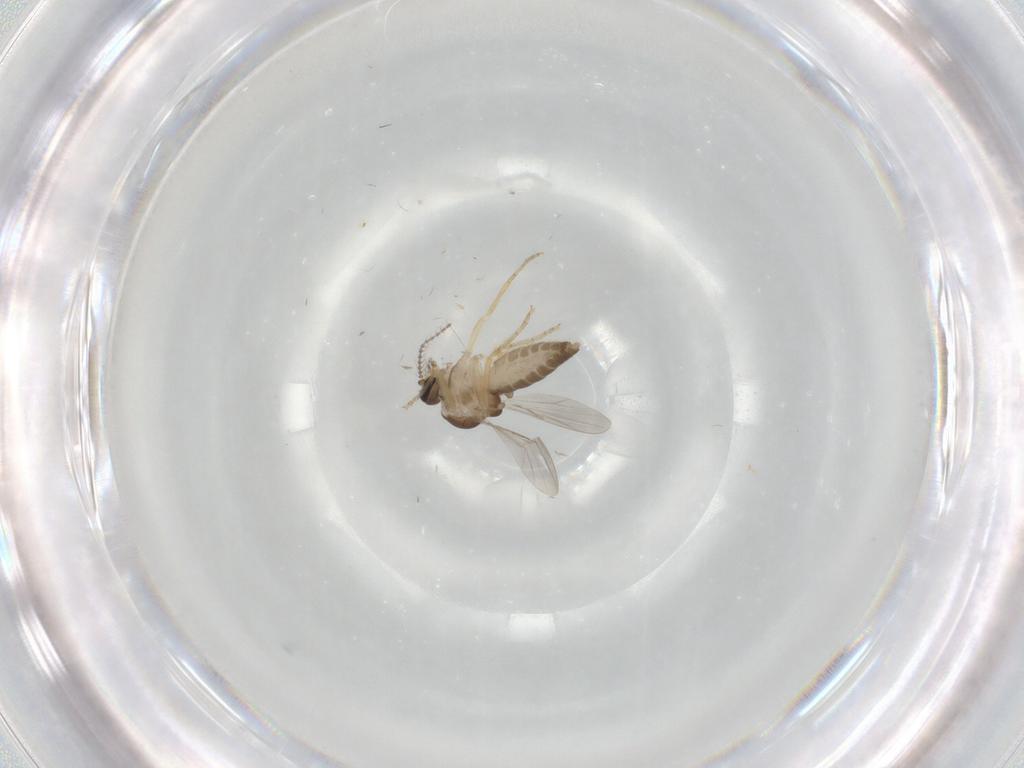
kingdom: Animalia
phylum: Arthropoda
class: Insecta
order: Diptera
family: Ceratopogonidae
